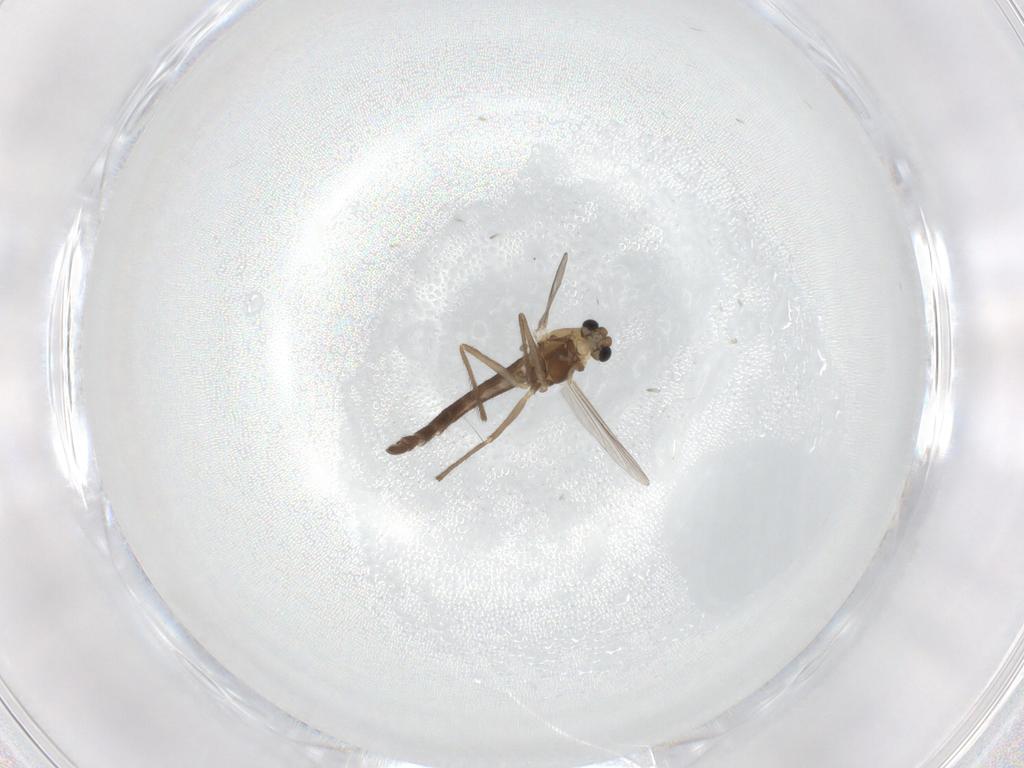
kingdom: Animalia
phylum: Arthropoda
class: Insecta
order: Diptera
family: Chironomidae
